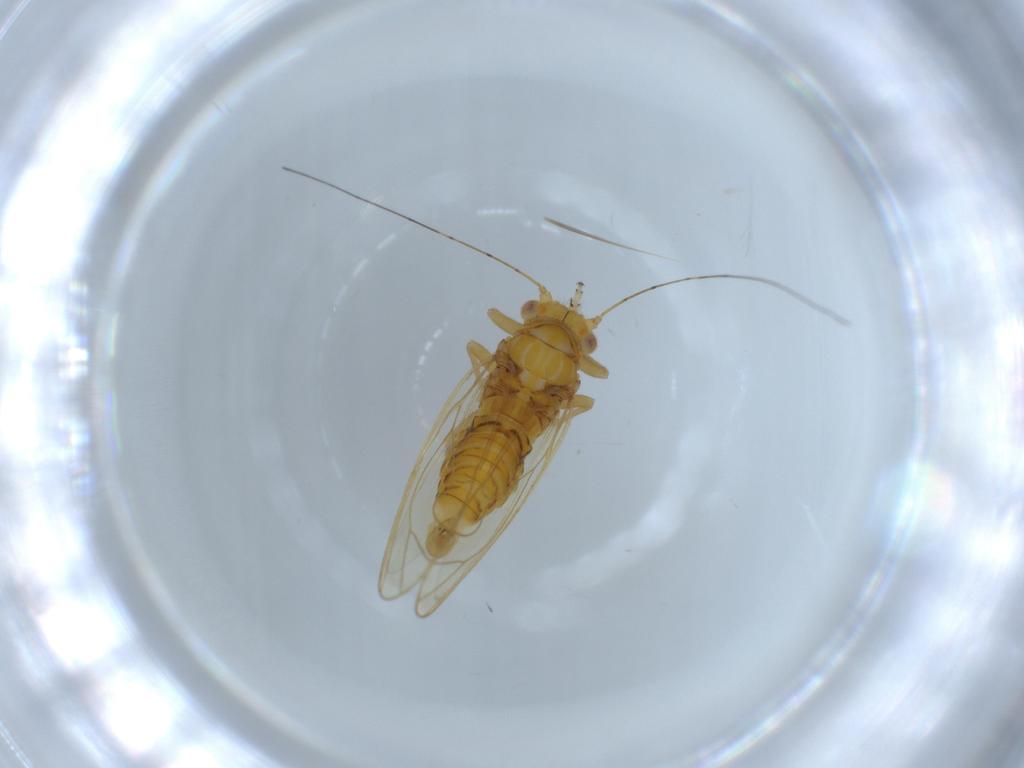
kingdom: Animalia
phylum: Arthropoda
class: Insecta
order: Hemiptera
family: Psyllidae
